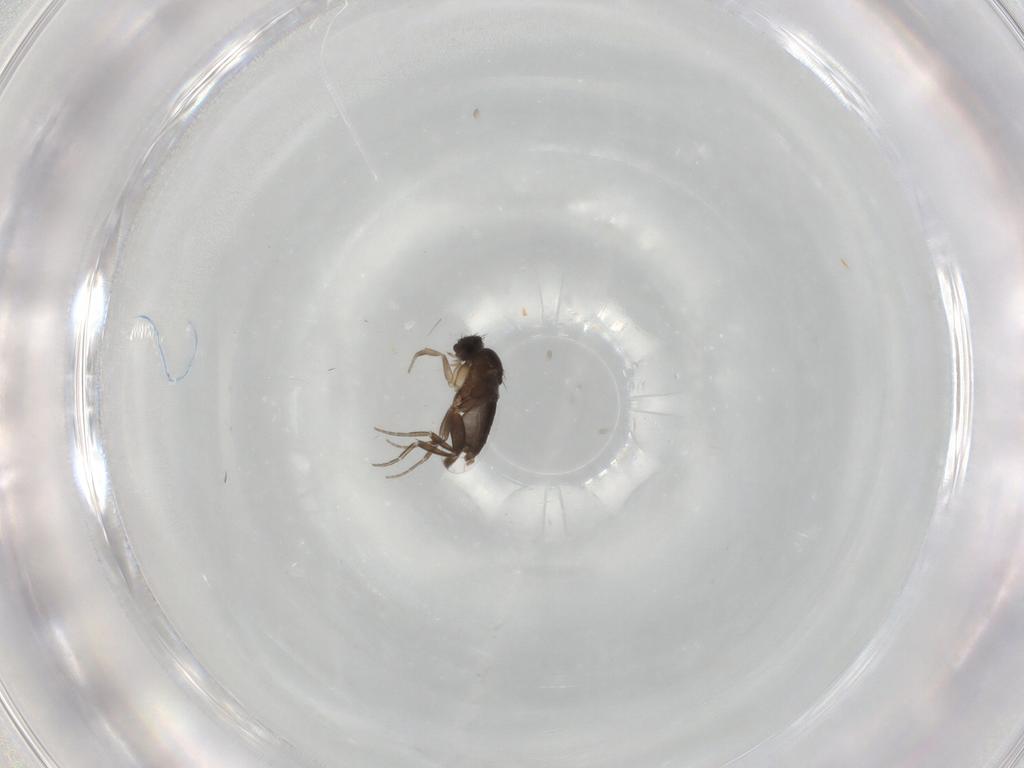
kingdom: Animalia
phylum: Arthropoda
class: Insecta
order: Diptera
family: Phoridae
